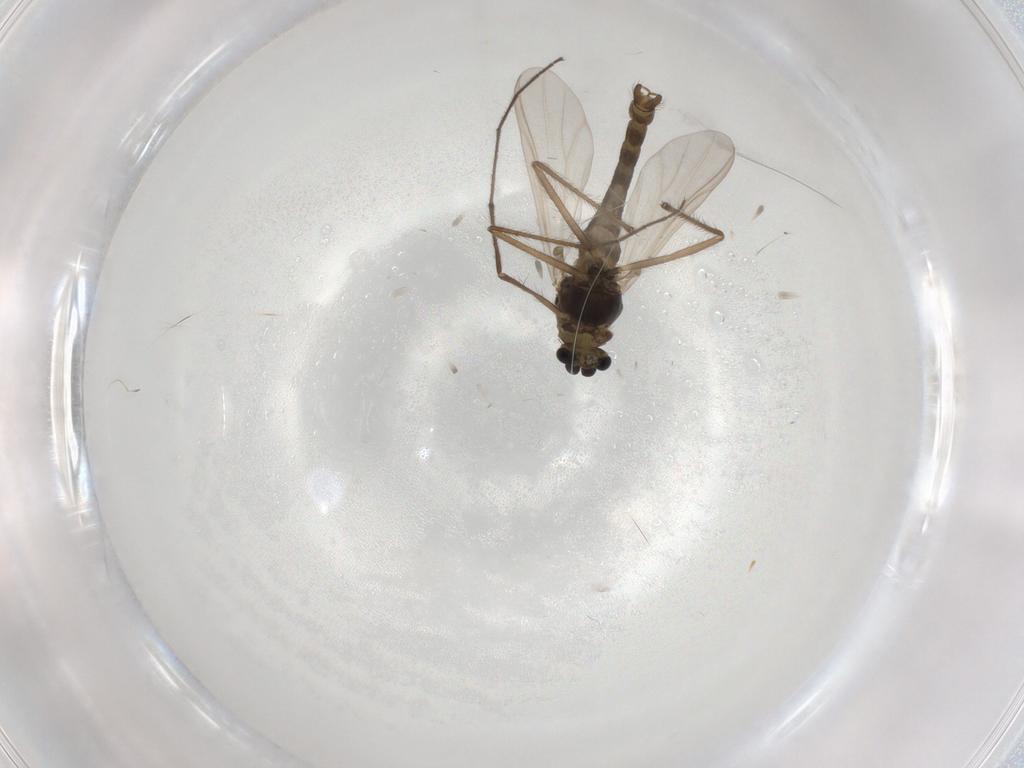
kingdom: Animalia
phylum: Arthropoda
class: Insecta
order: Diptera
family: Chironomidae
